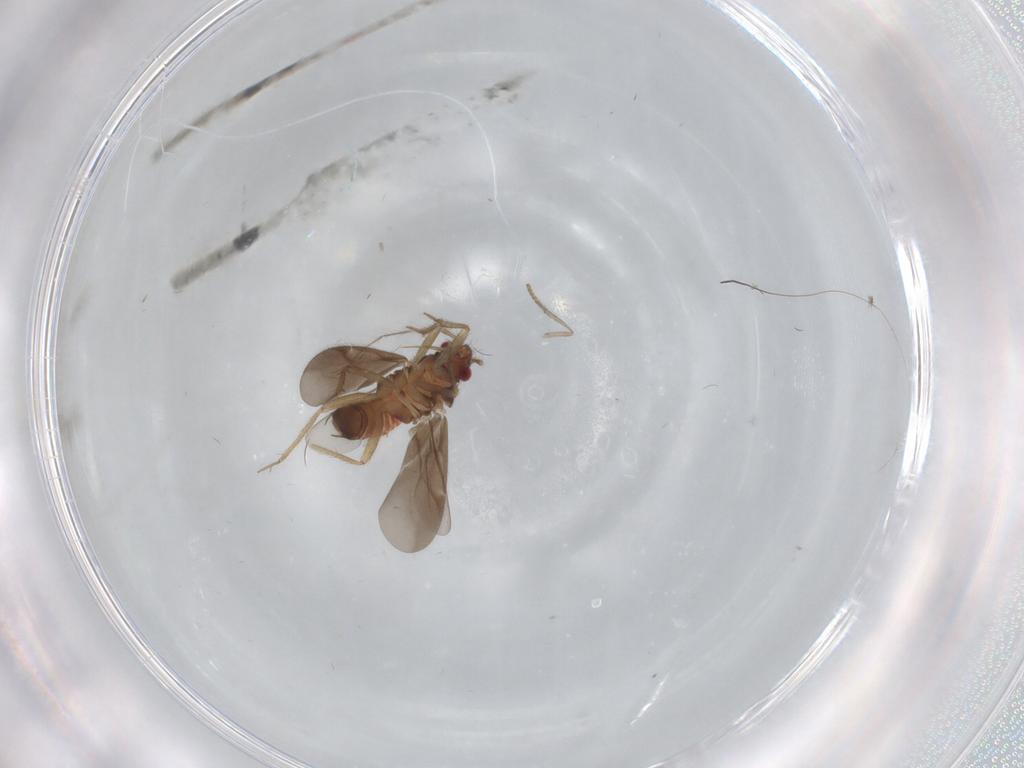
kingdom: Animalia
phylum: Arthropoda
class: Insecta
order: Hemiptera
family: Ceratocombidae
